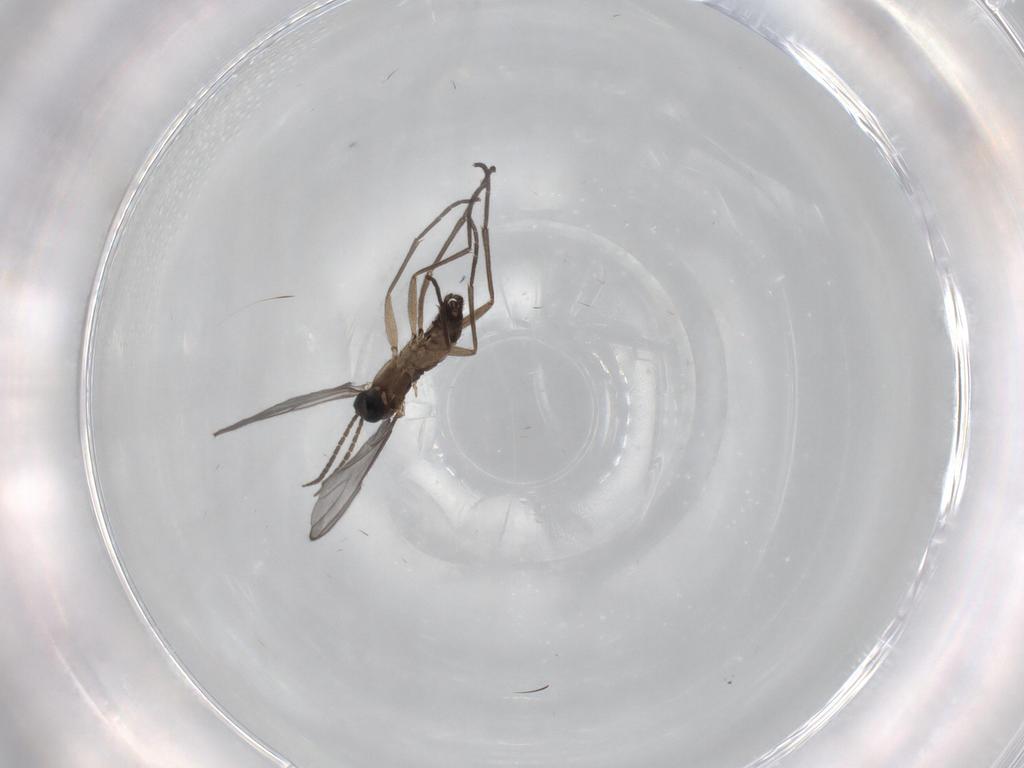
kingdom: Animalia
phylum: Arthropoda
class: Insecta
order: Diptera
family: Sciaridae
